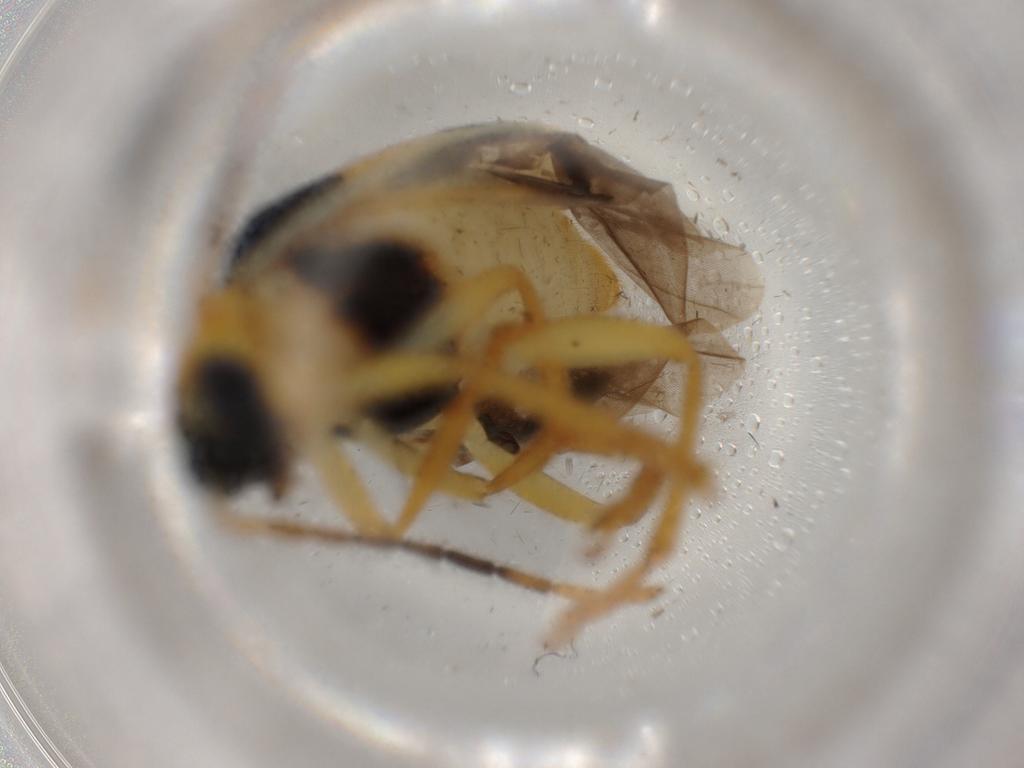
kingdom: Animalia
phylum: Arthropoda
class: Insecta
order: Coleoptera
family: Chrysomelidae
